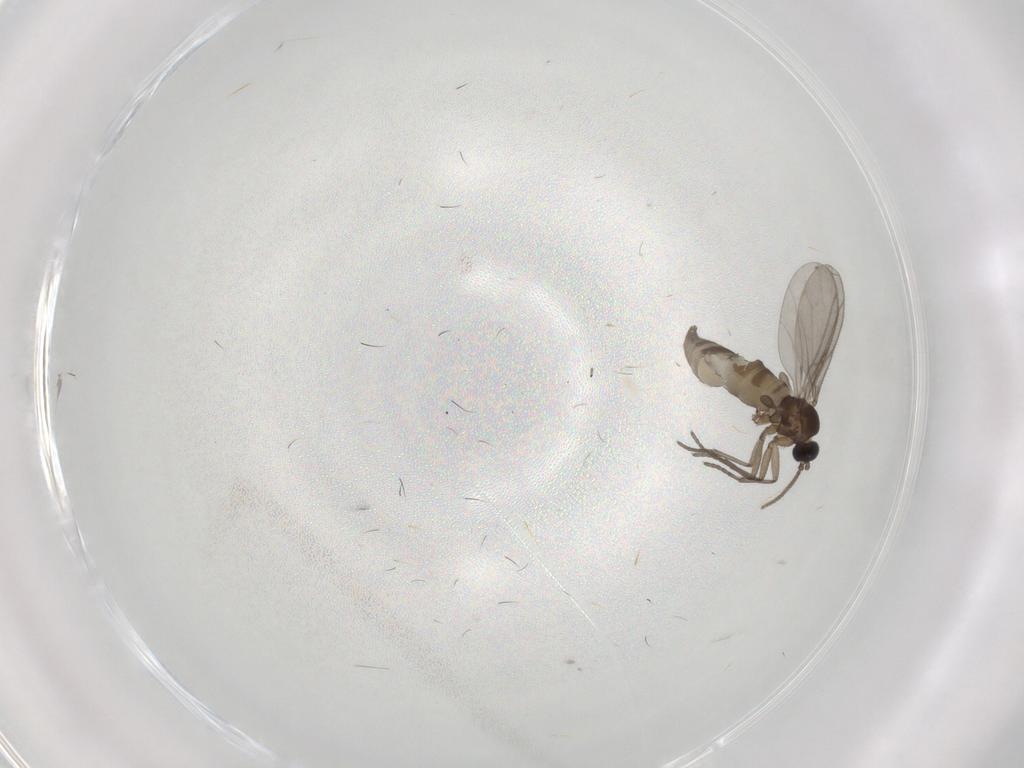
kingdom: Animalia
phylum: Arthropoda
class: Insecta
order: Diptera
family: Sciaridae
